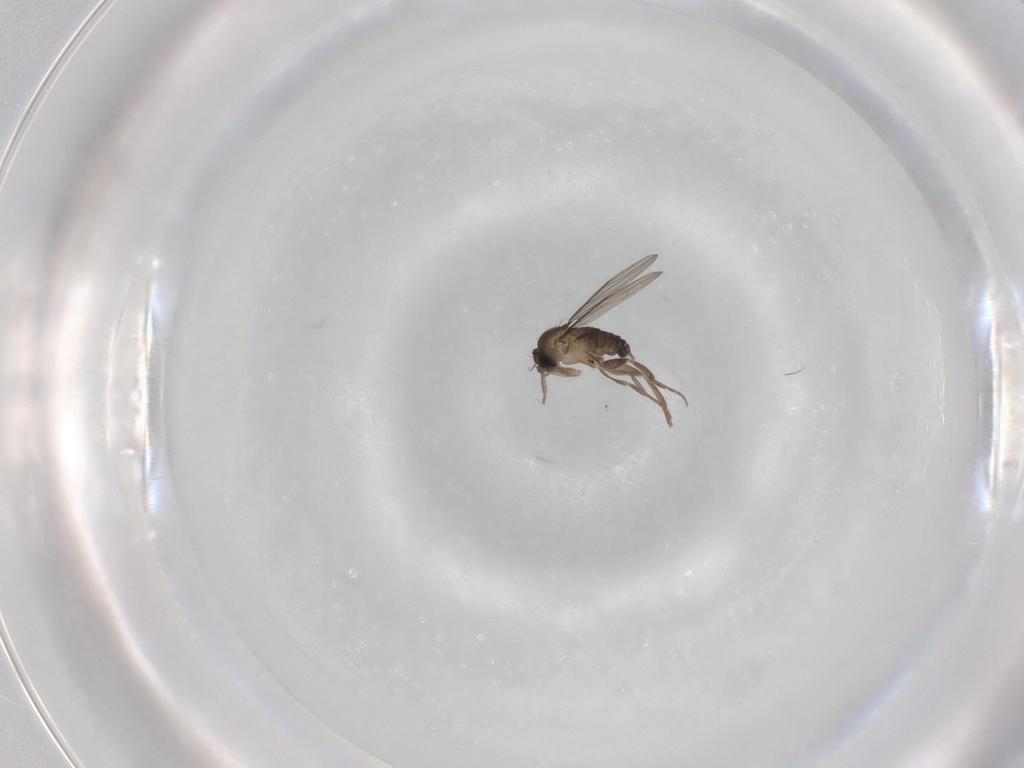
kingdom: Animalia
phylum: Arthropoda
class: Insecta
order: Diptera
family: Phoridae
